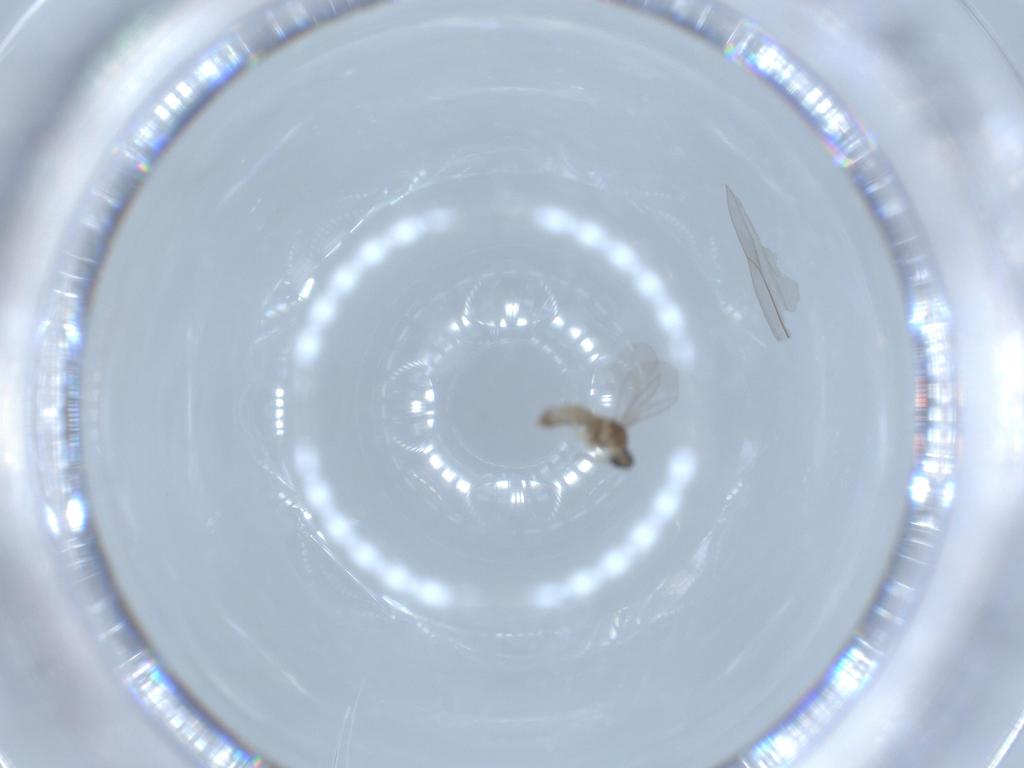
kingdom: Animalia
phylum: Arthropoda
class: Insecta
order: Diptera
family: Cecidomyiidae
